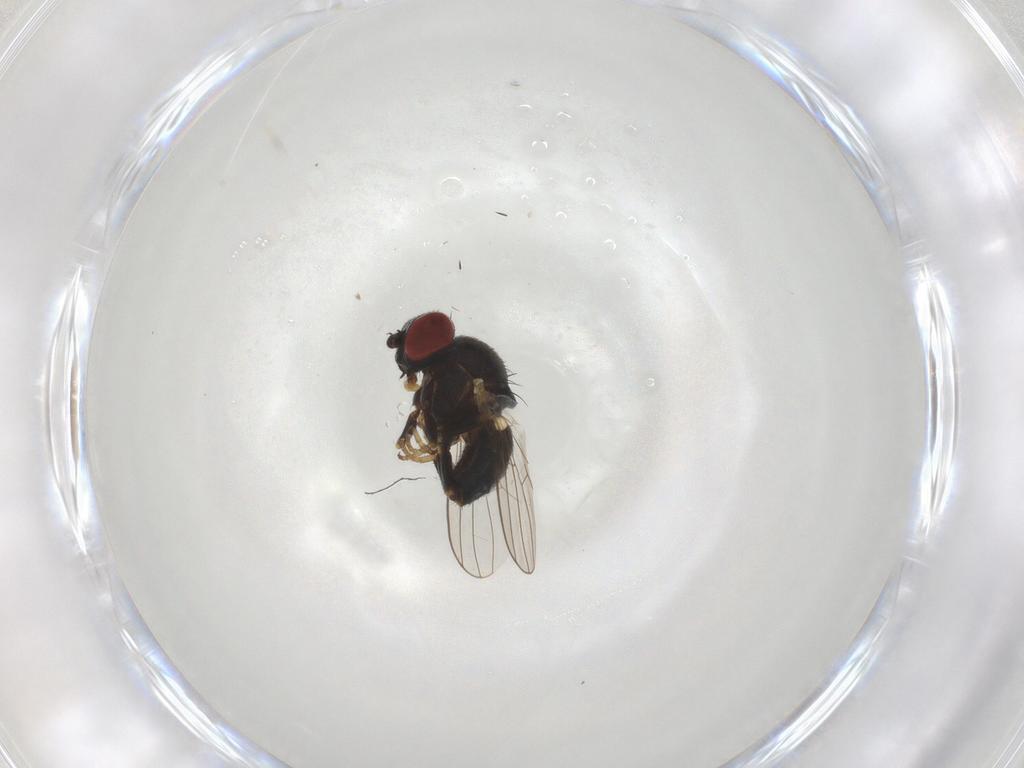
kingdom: Animalia
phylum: Arthropoda
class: Insecta
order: Diptera
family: Chamaemyiidae
